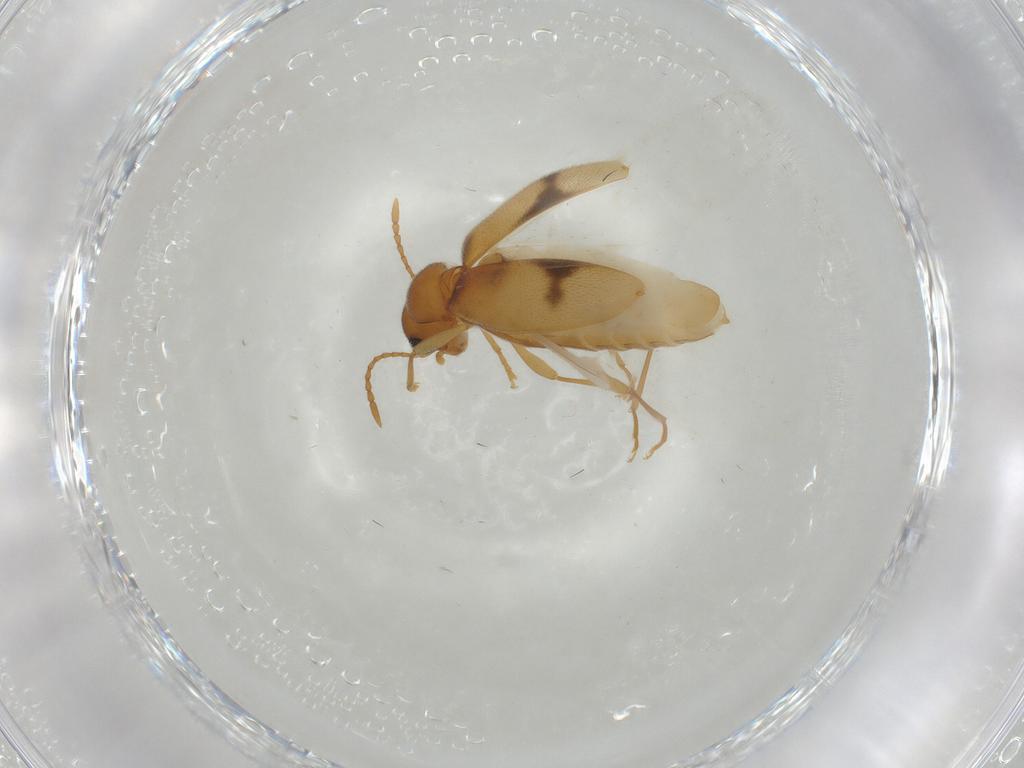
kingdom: Animalia
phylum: Arthropoda
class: Insecta
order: Coleoptera
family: Anthicidae
